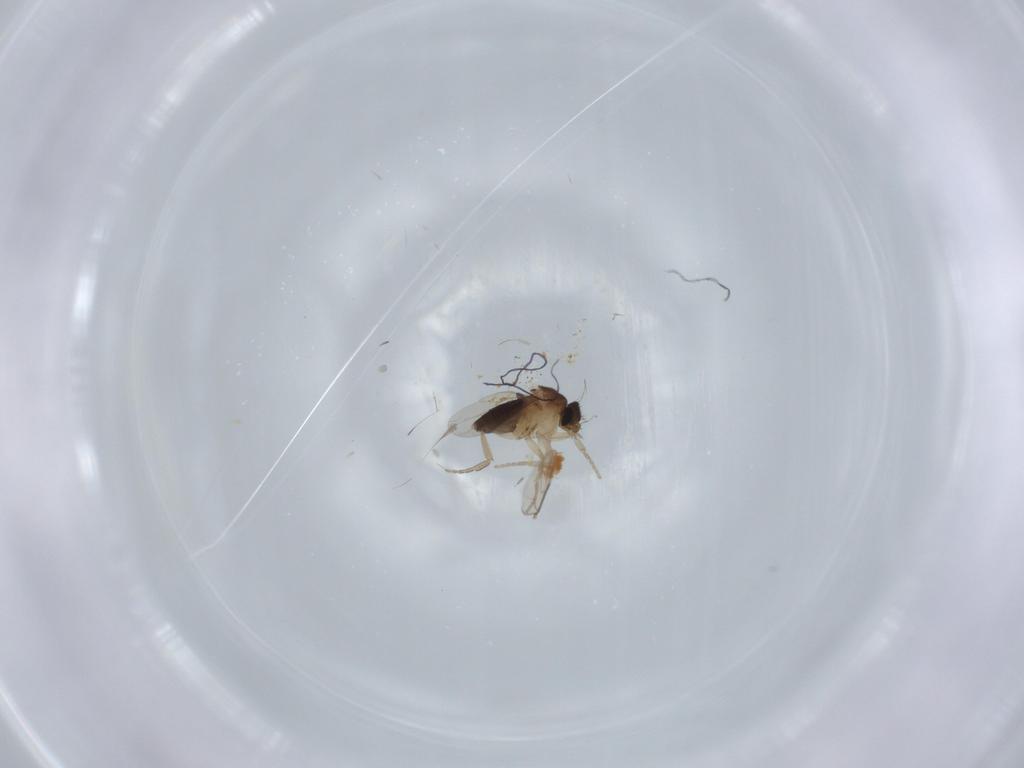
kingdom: Animalia
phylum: Arthropoda
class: Insecta
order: Diptera
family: Phoridae
